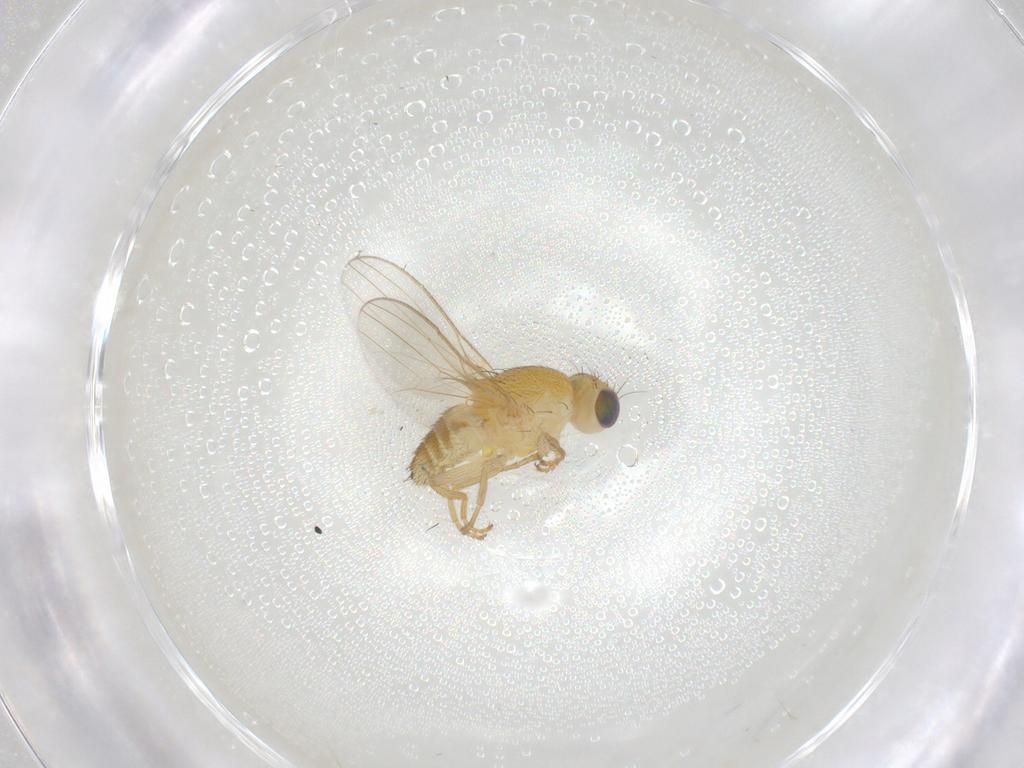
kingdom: Animalia
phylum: Arthropoda
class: Insecta
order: Diptera
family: Chyromyidae
